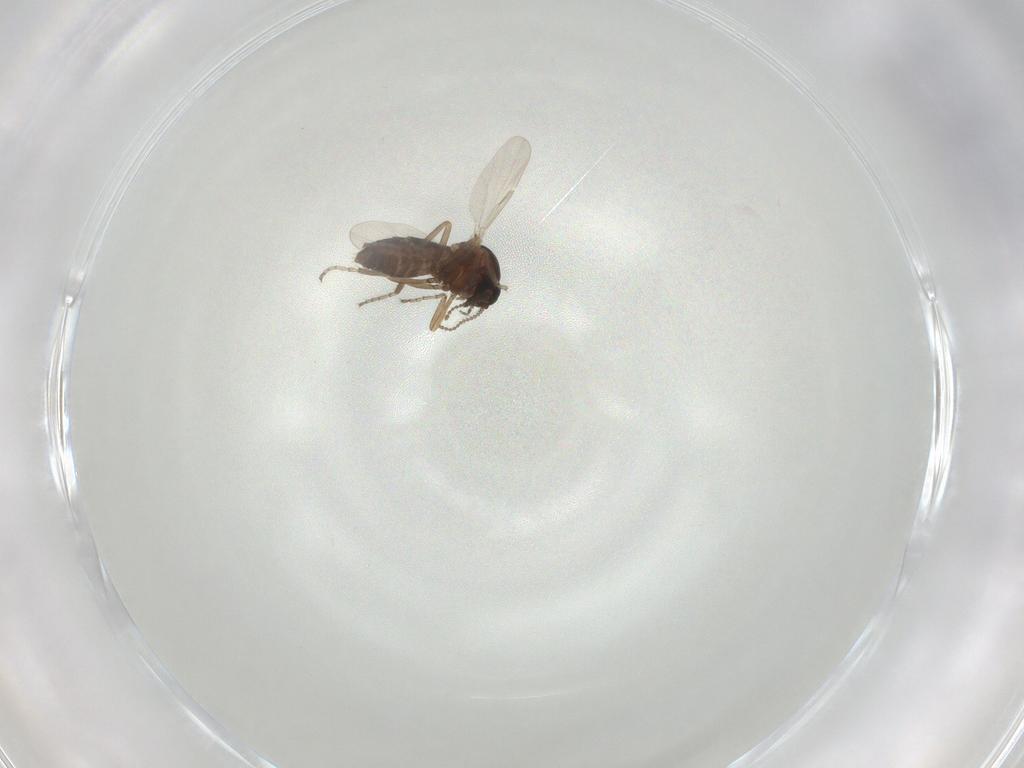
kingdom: Animalia
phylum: Arthropoda
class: Insecta
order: Diptera
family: Ceratopogonidae
